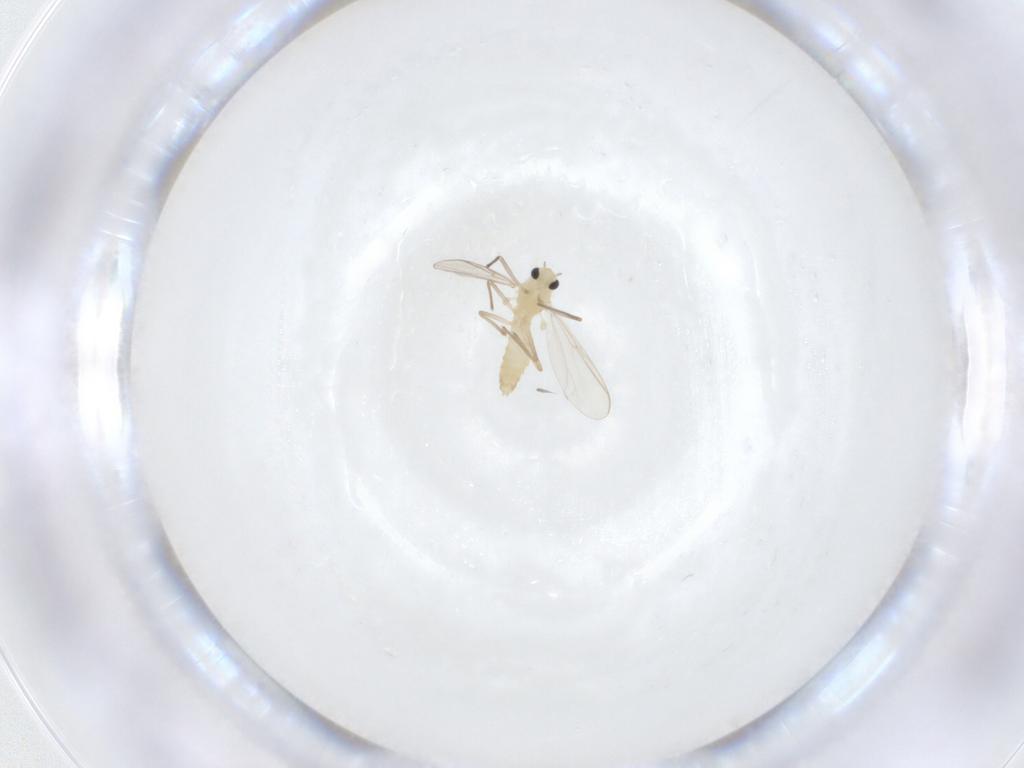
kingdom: Animalia
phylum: Arthropoda
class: Insecta
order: Diptera
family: Chironomidae
